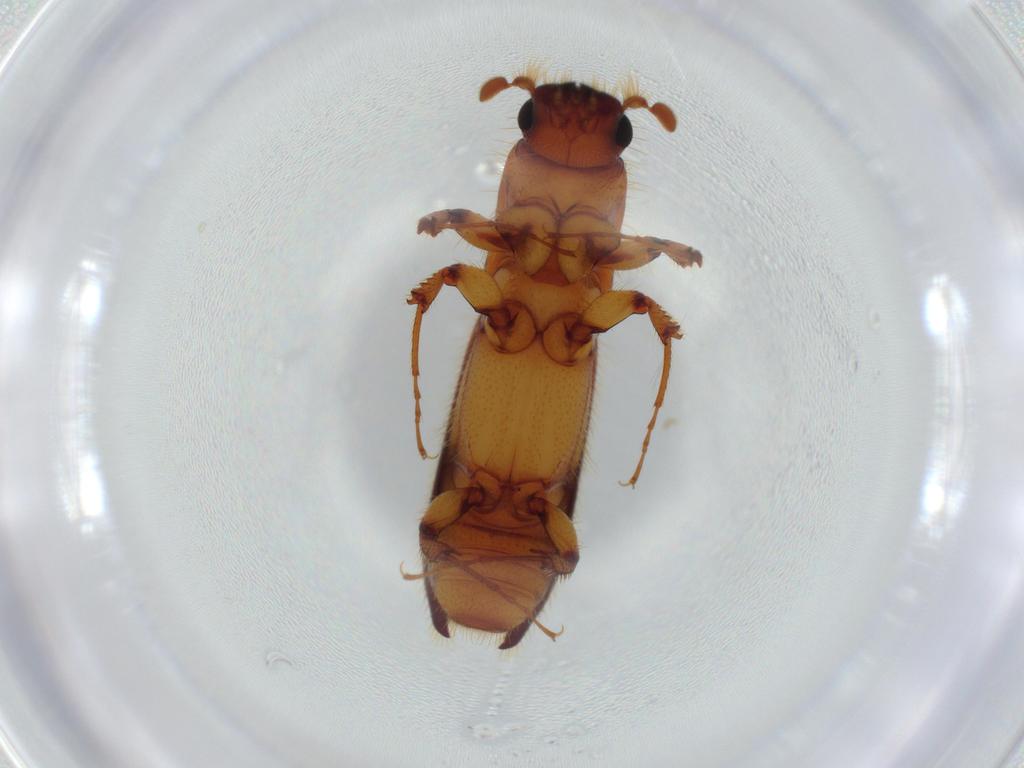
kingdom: Animalia
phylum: Arthropoda
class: Insecta
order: Coleoptera
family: Curculionidae
